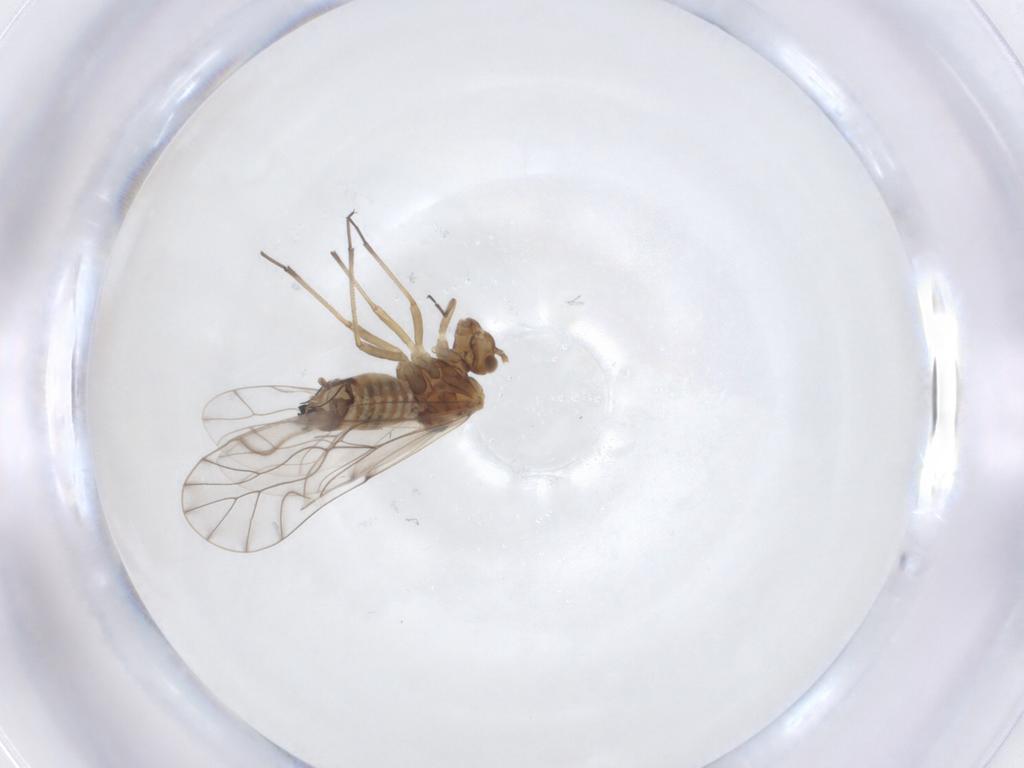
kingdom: Animalia
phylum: Arthropoda
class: Insecta
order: Psocodea
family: Lachesillidae
